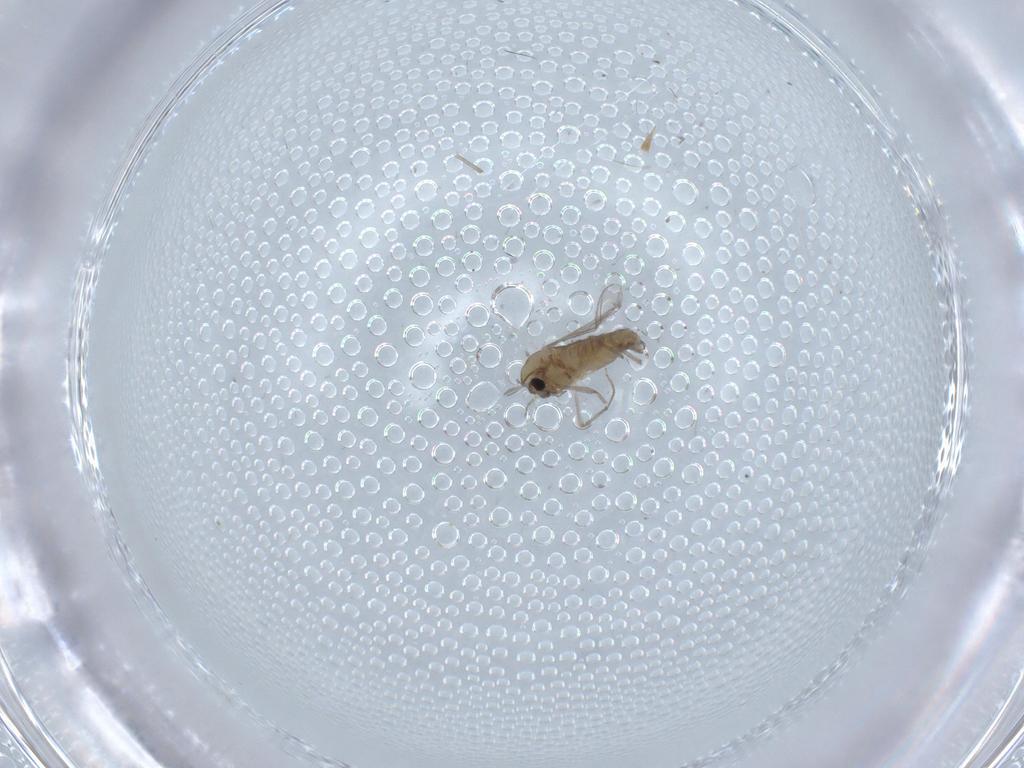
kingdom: Animalia
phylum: Arthropoda
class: Insecta
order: Diptera
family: Chironomidae
